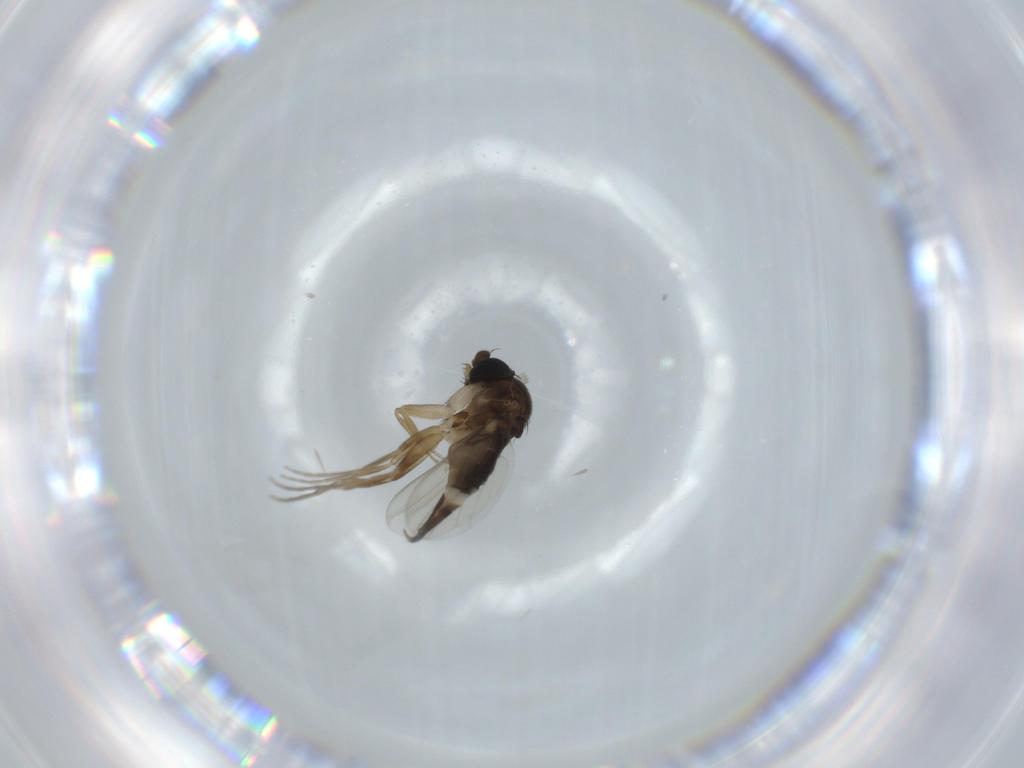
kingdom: Animalia
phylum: Arthropoda
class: Insecta
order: Diptera
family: Phoridae
